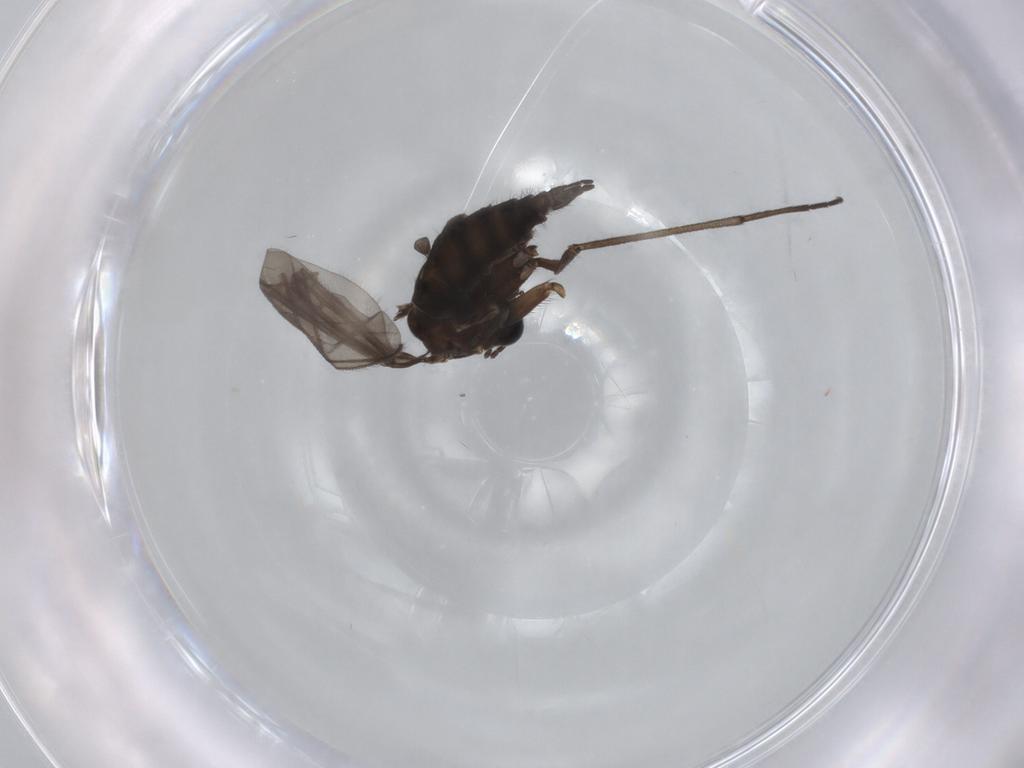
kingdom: Animalia
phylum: Arthropoda
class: Insecta
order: Diptera
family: Sciaridae
